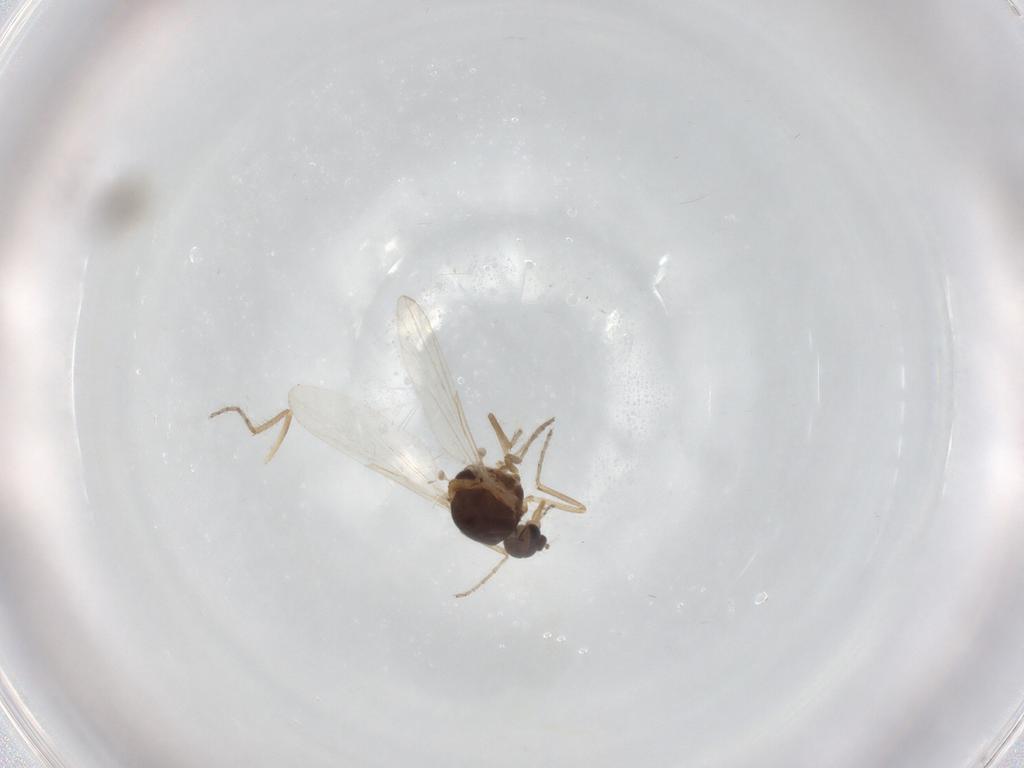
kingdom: Animalia
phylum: Arthropoda
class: Insecta
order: Diptera
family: Ceratopogonidae
